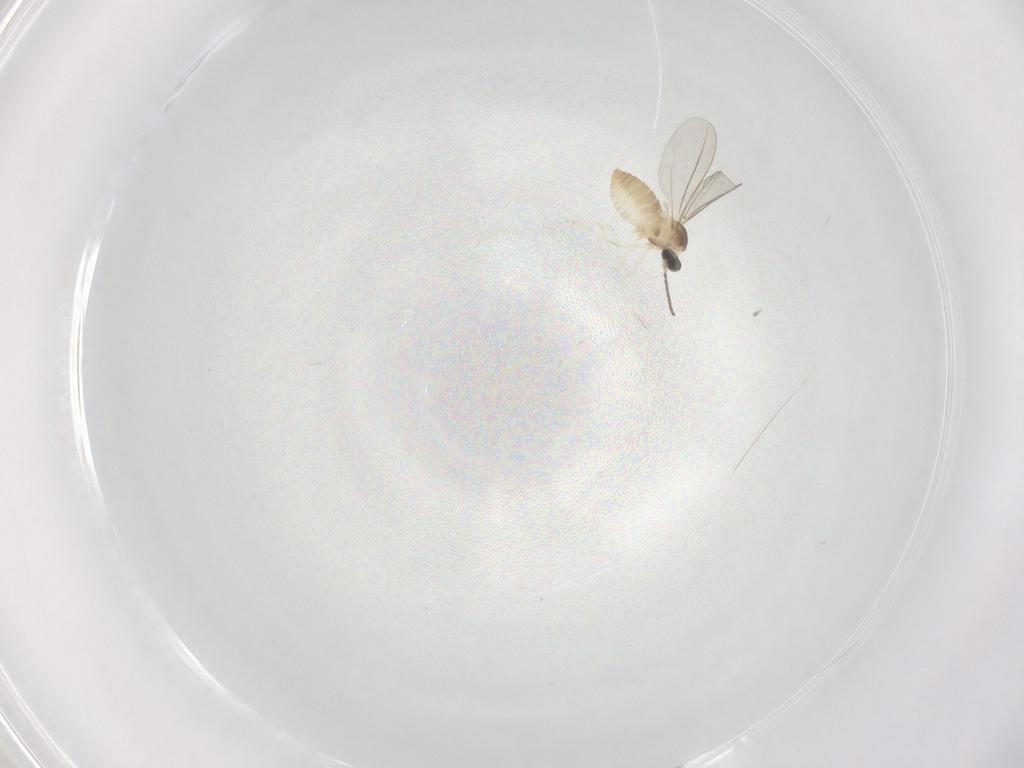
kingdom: Animalia
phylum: Arthropoda
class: Insecta
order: Diptera
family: Cecidomyiidae
